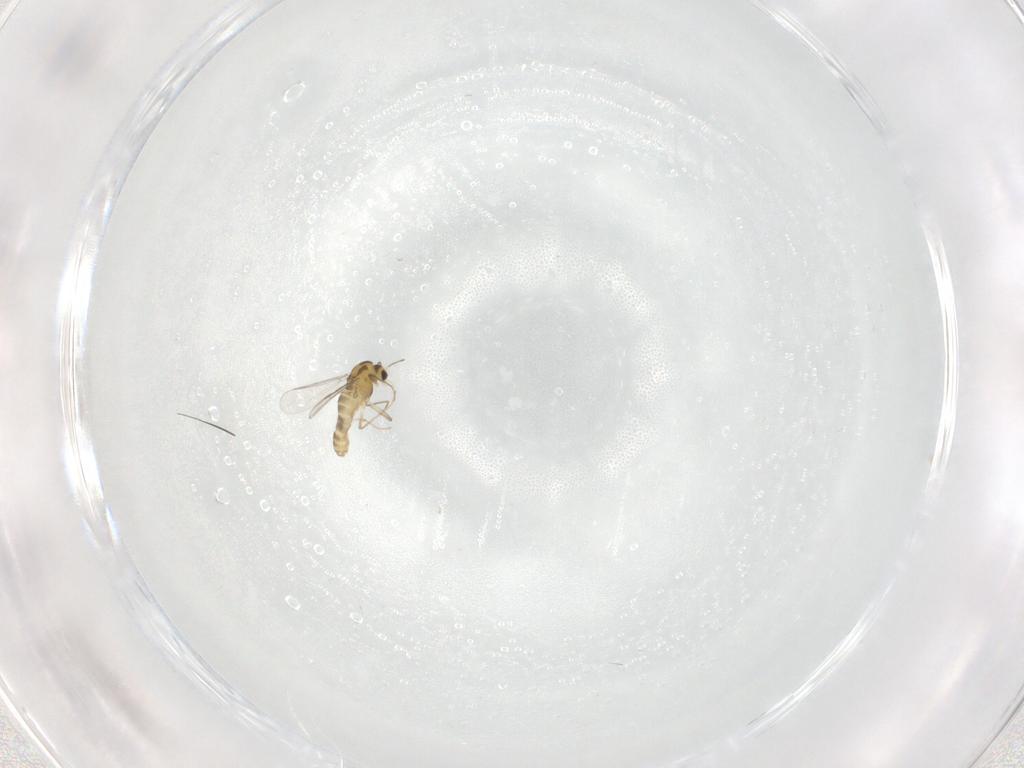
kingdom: Animalia
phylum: Arthropoda
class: Insecta
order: Diptera
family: Chironomidae
